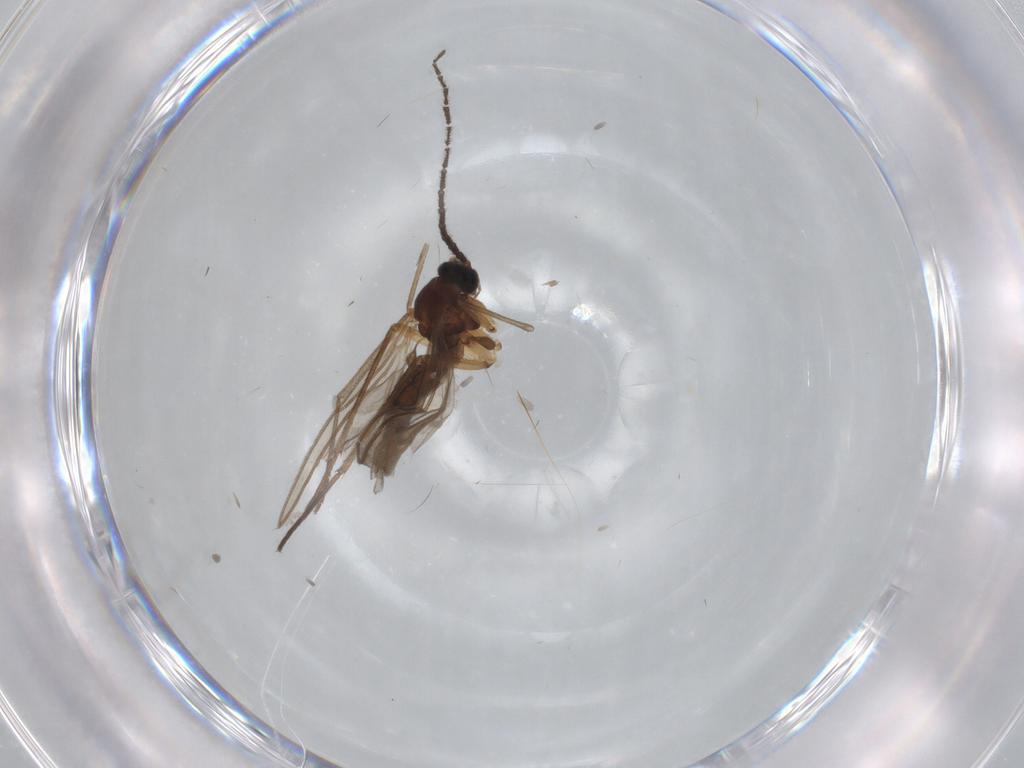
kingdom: Animalia
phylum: Arthropoda
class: Insecta
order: Diptera
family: Sciaridae
